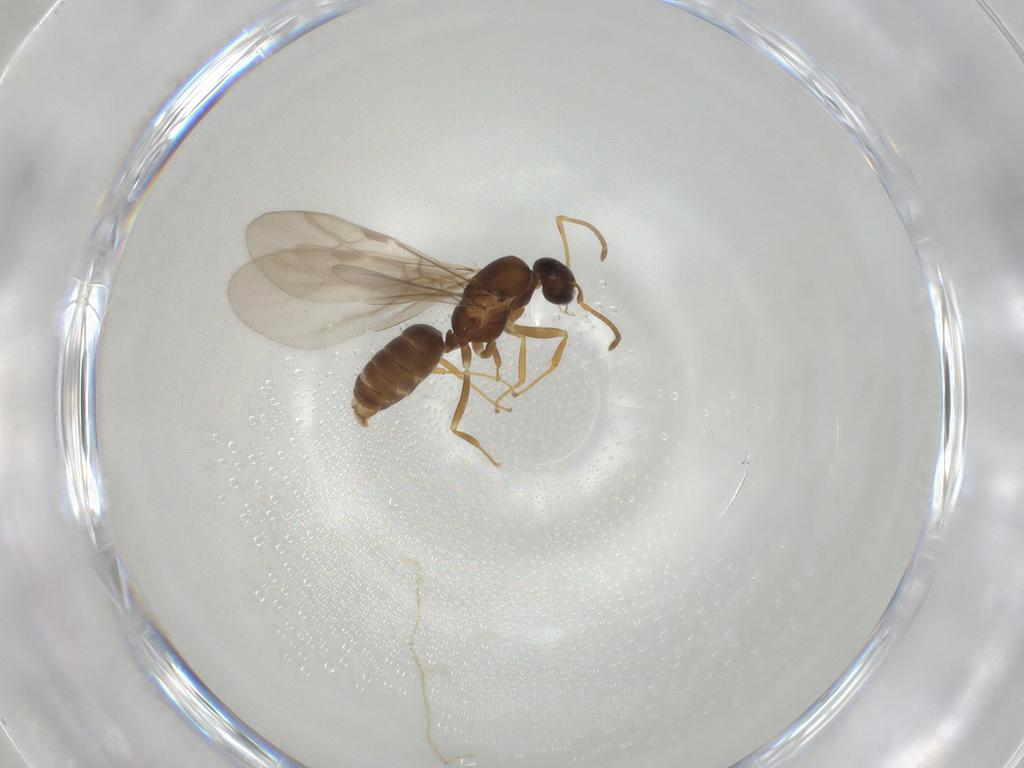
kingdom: Animalia
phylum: Arthropoda
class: Insecta
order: Hymenoptera
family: Formicidae
